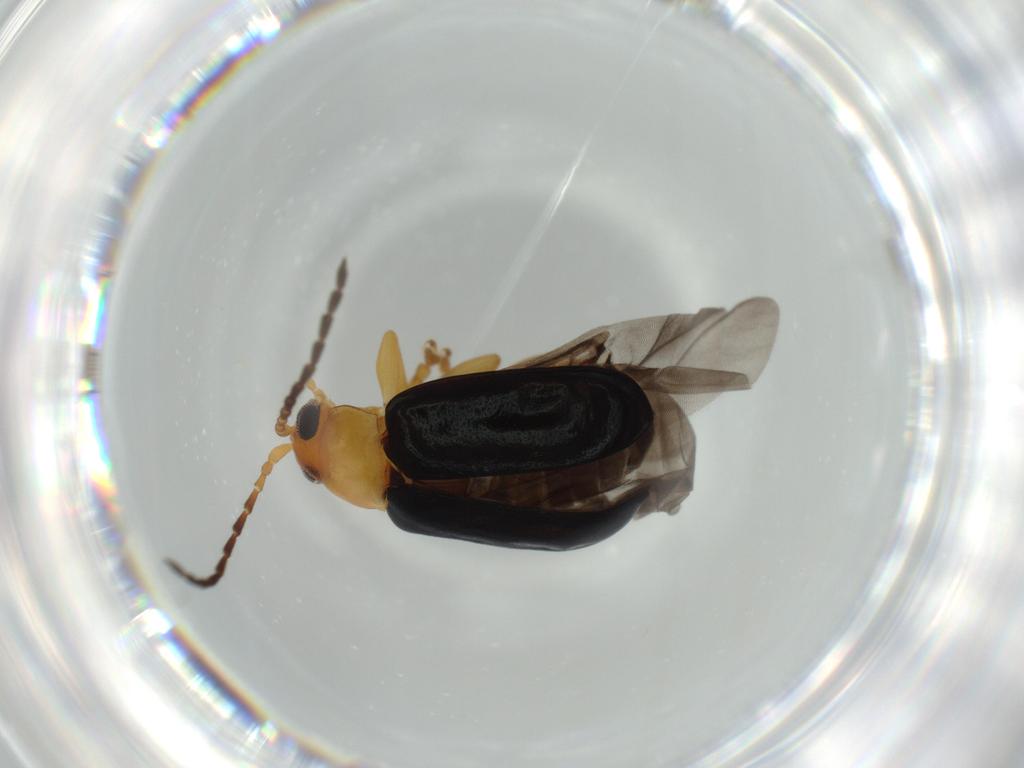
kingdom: Animalia
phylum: Arthropoda
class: Insecta
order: Coleoptera
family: Chrysomelidae
